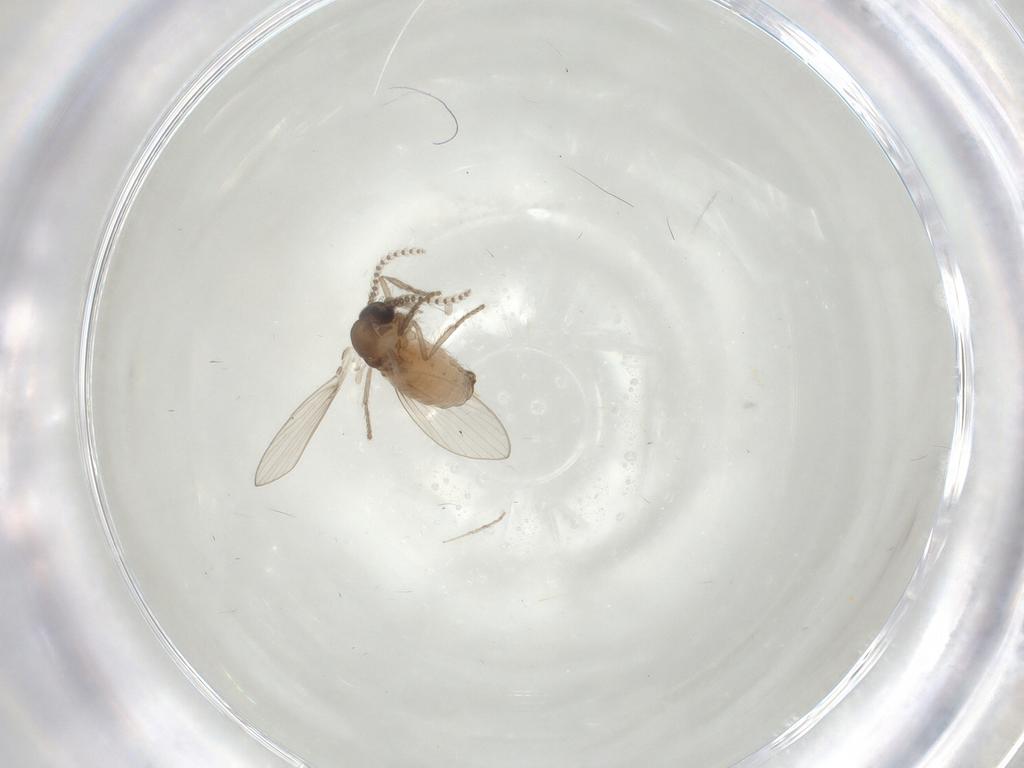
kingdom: Animalia
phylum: Arthropoda
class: Insecta
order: Diptera
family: Psychodidae
